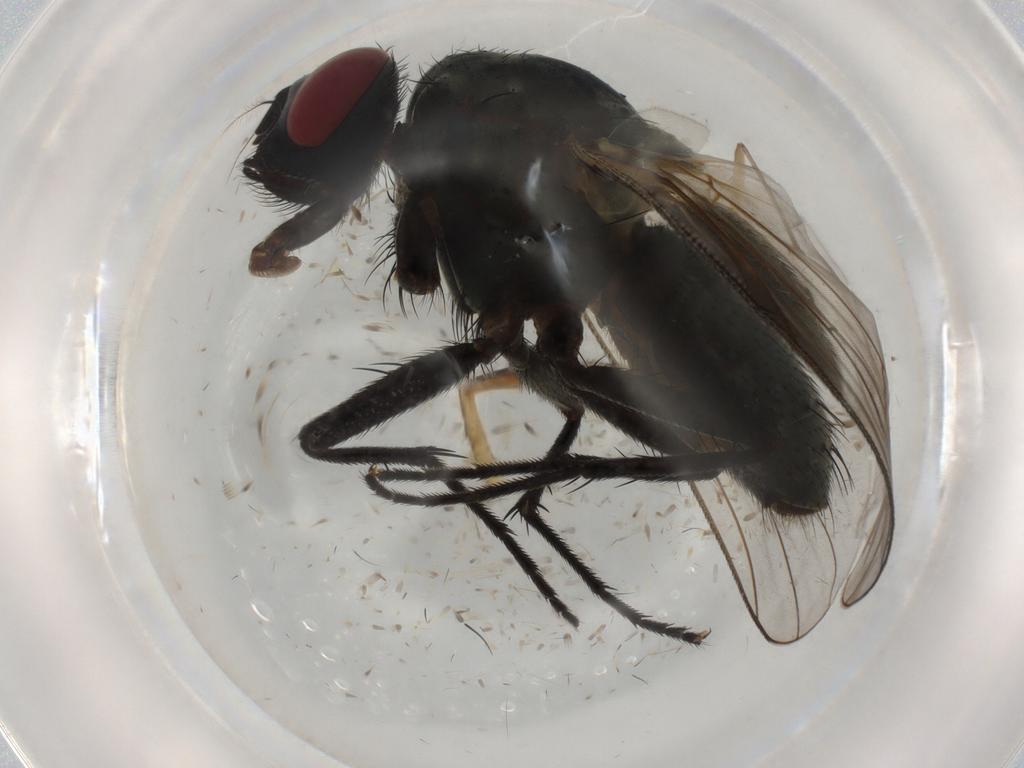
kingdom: Animalia
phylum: Arthropoda
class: Insecta
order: Diptera
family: Muscidae
